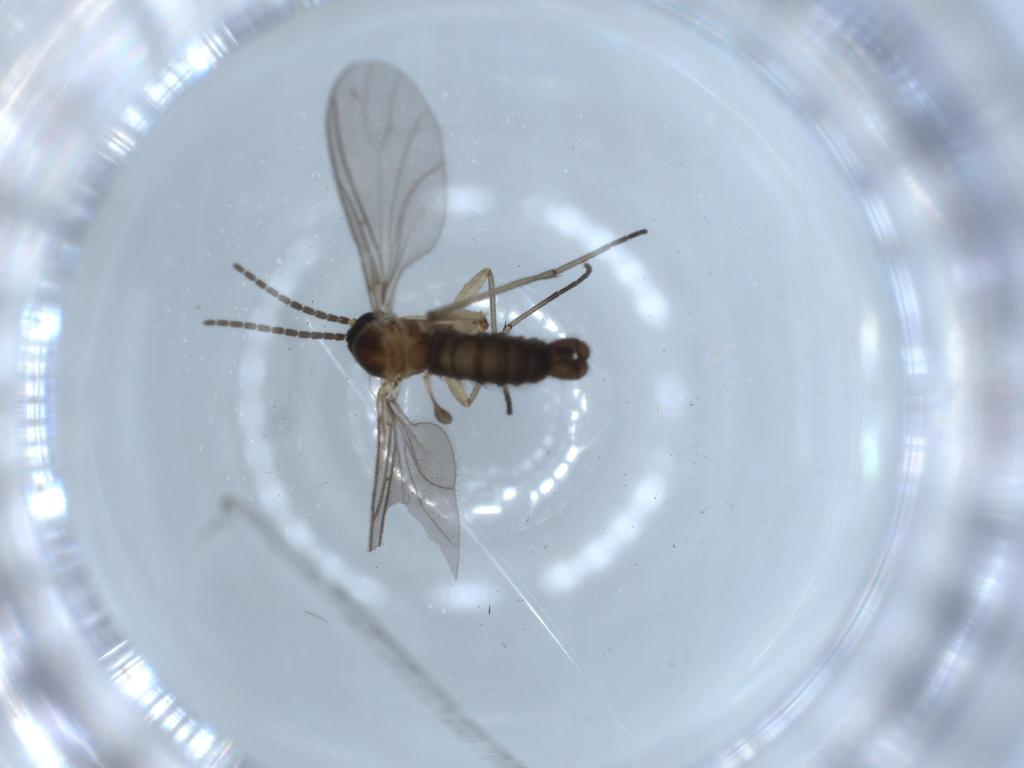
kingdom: Animalia
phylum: Arthropoda
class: Insecta
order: Diptera
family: Sciaridae
